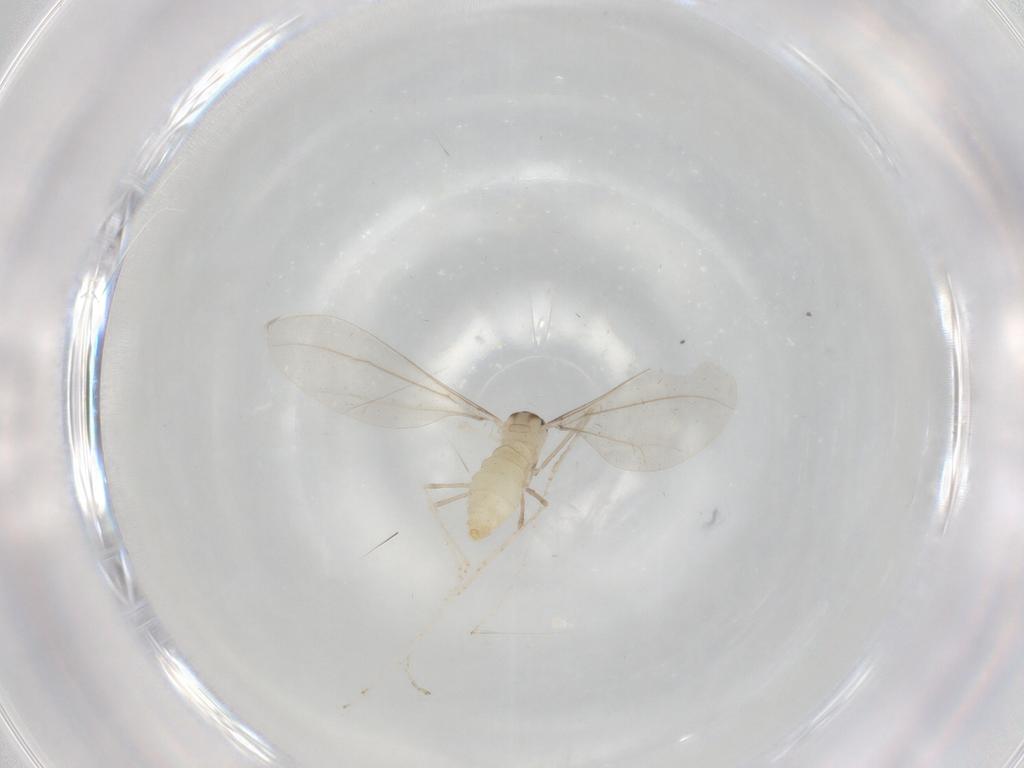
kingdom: Animalia
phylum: Arthropoda
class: Insecta
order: Diptera
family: Cecidomyiidae
